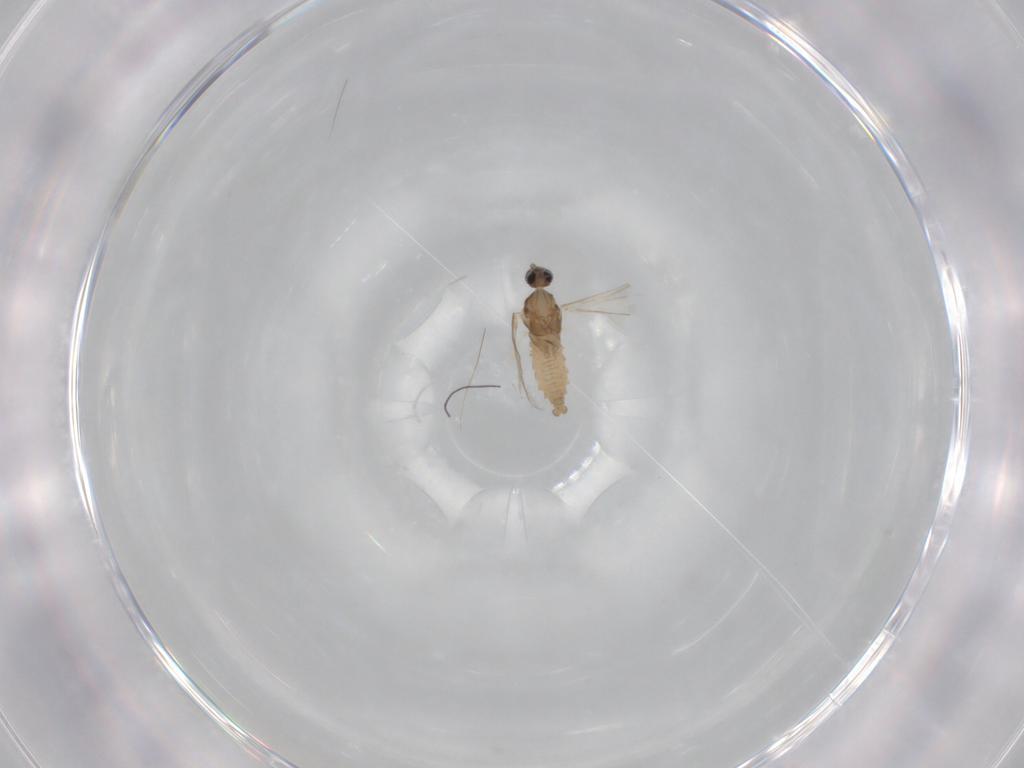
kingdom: Animalia
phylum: Arthropoda
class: Insecta
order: Diptera
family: Cecidomyiidae
